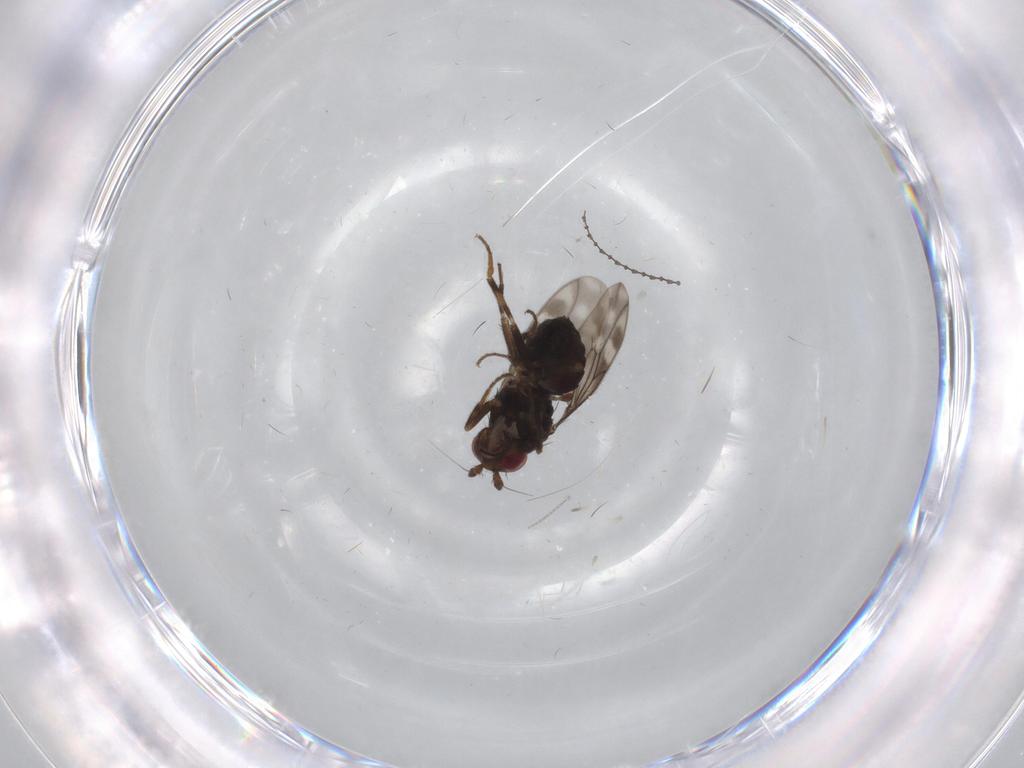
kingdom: Animalia
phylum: Arthropoda
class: Insecta
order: Diptera
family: Sphaeroceridae
